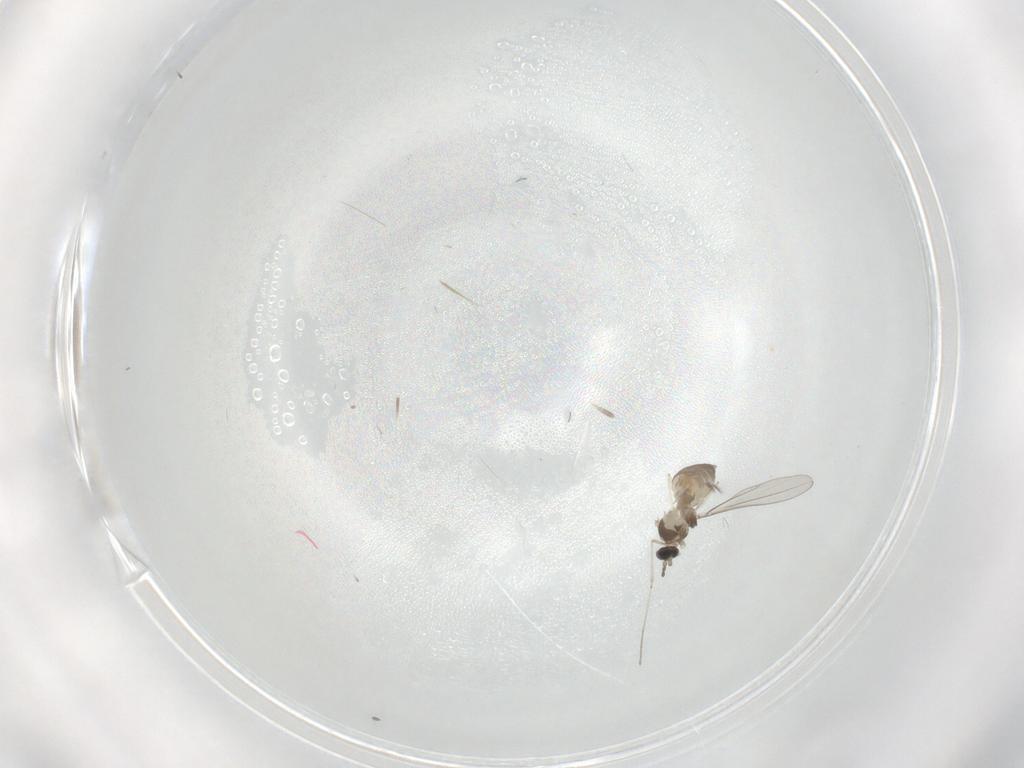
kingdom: Animalia
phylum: Arthropoda
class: Insecta
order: Diptera
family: Cecidomyiidae
